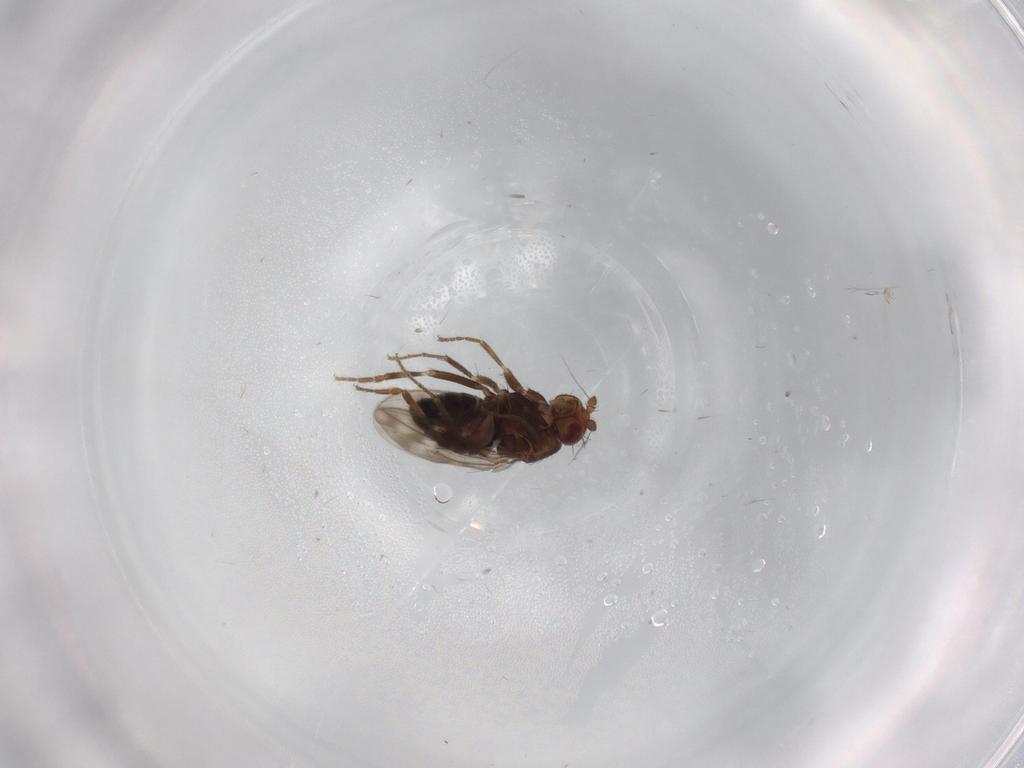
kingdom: Animalia
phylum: Arthropoda
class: Insecta
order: Diptera
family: Sphaeroceridae
